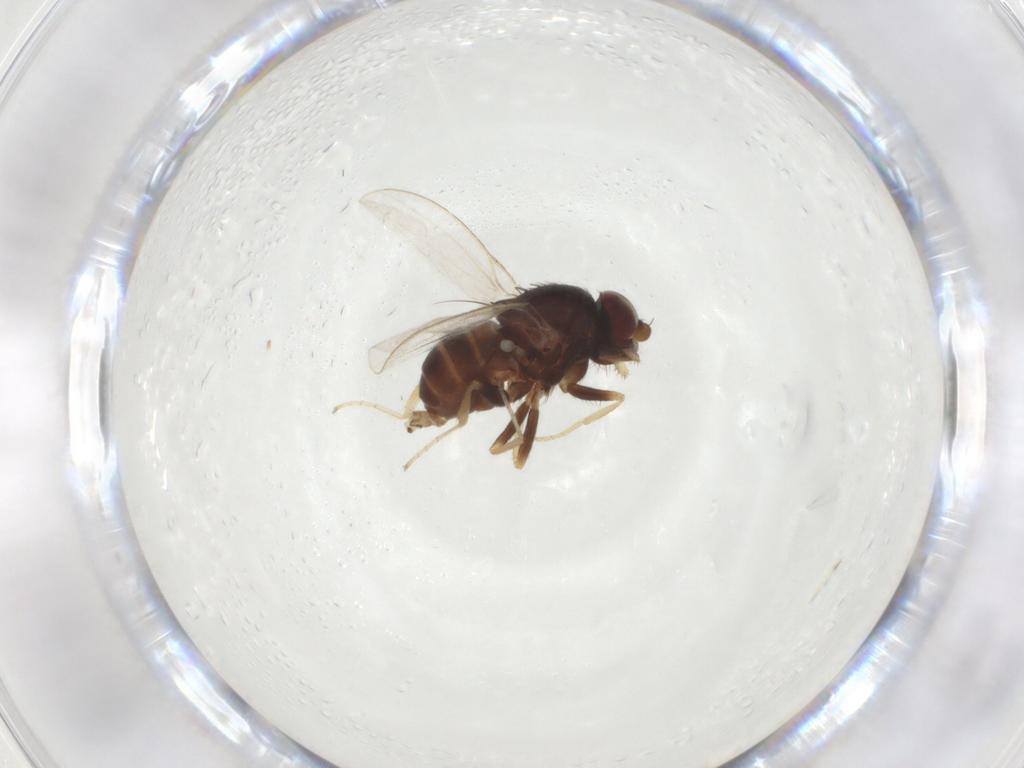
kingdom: Animalia
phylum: Arthropoda
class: Insecta
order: Diptera
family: Milichiidae
